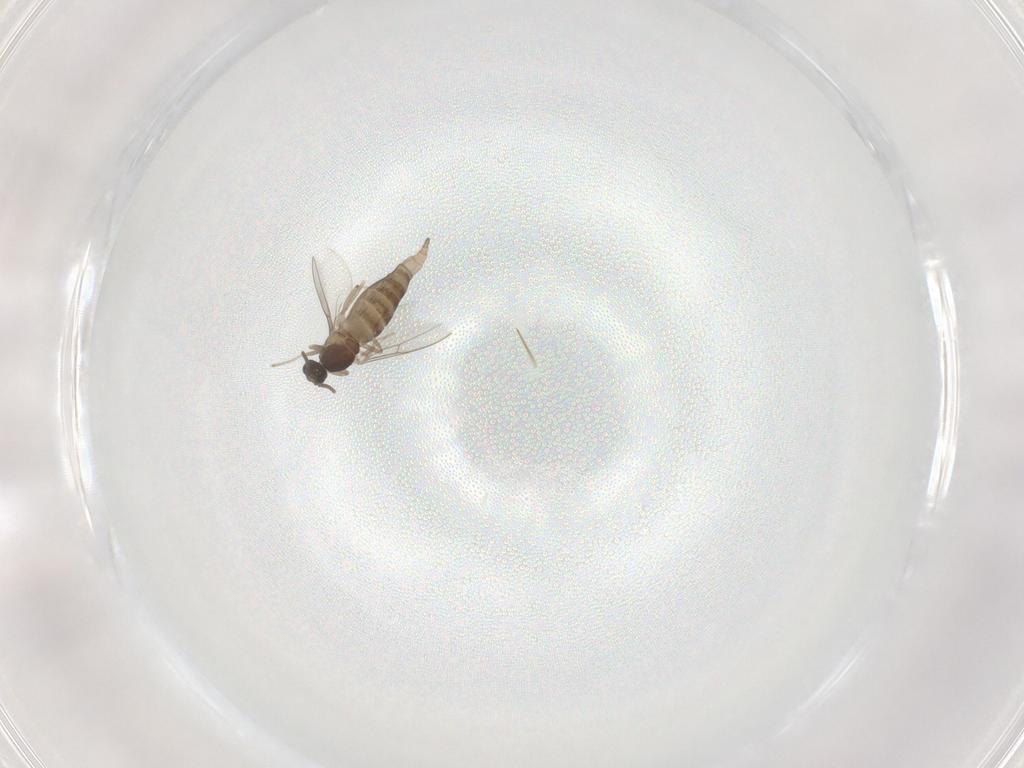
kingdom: Animalia
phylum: Arthropoda
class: Insecta
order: Diptera
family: Cecidomyiidae
